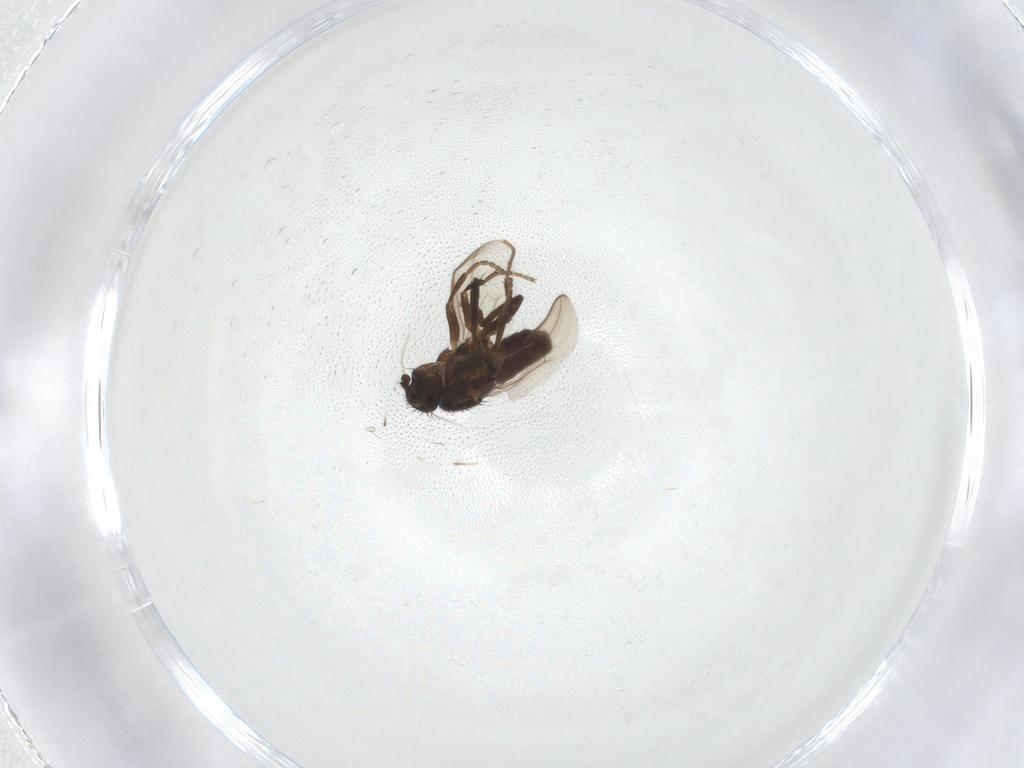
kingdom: Animalia
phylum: Arthropoda
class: Insecta
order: Diptera
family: Sphaeroceridae
